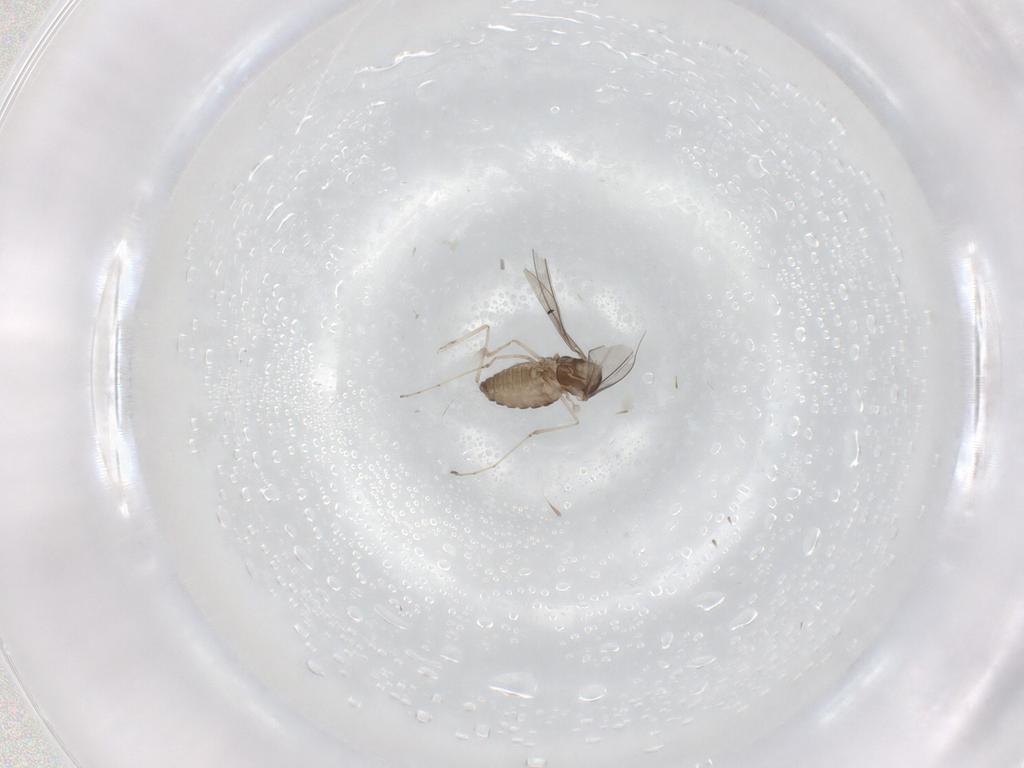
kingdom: Animalia
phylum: Arthropoda
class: Insecta
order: Diptera
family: Cecidomyiidae
